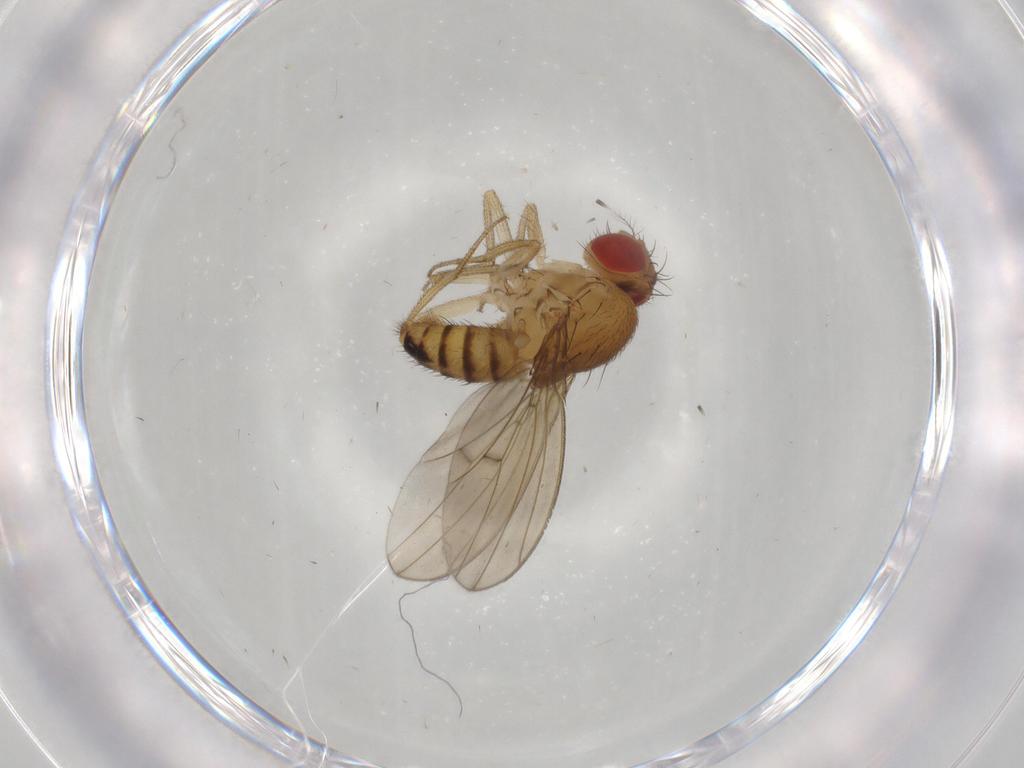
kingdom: Animalia
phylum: Arthropoda
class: Insecta
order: Diptera
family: Drosophilidae
